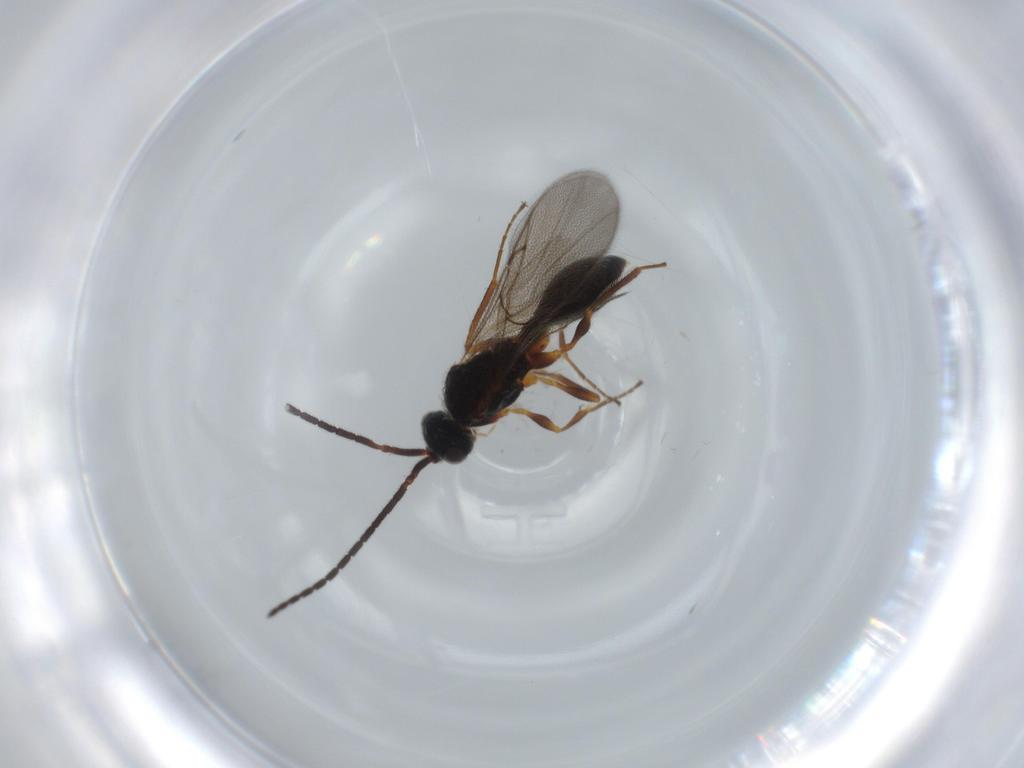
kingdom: Animalia
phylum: Arthropoda
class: Insecta
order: Hymenoptera
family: Diapriidae
